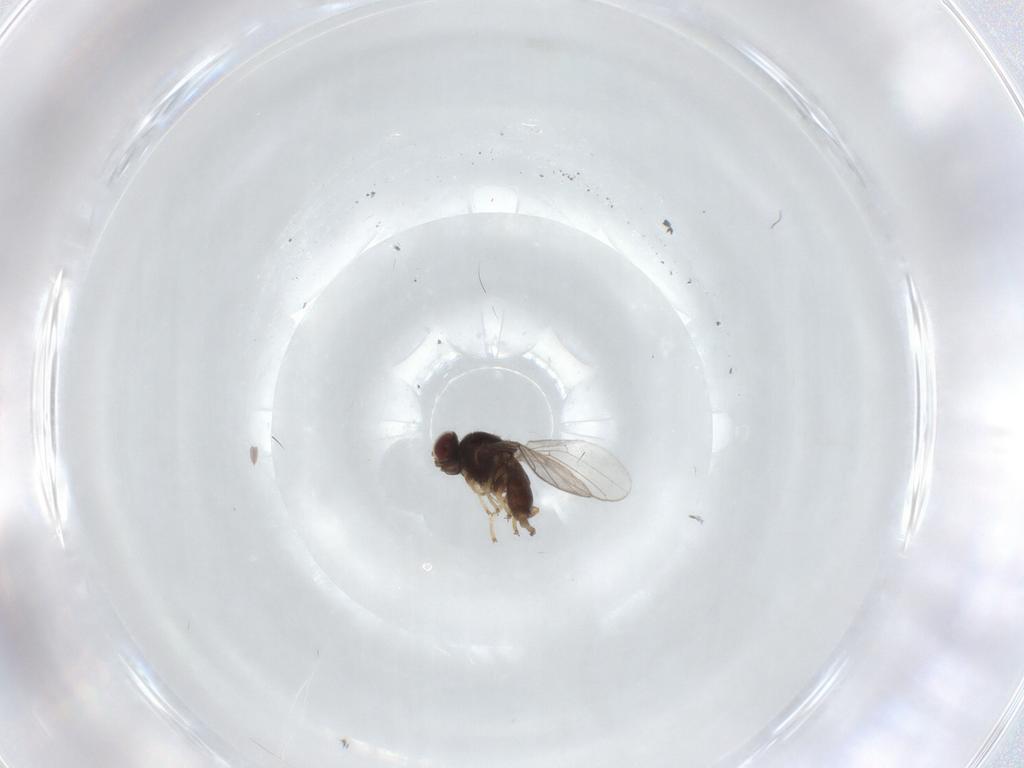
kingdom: Animalia
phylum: Arthropoda
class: Insecta
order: Diptera
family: Chloropidae
